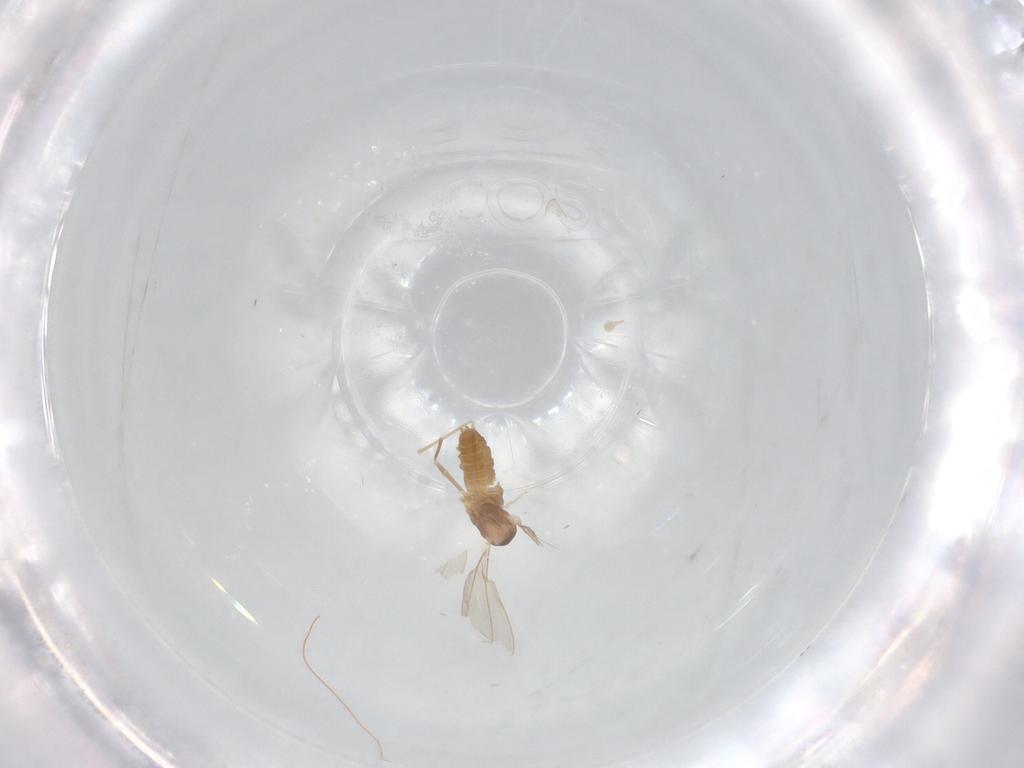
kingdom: Animalia
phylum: Arthropoda
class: Insecta
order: Diptera
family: Cecidomyiidae
